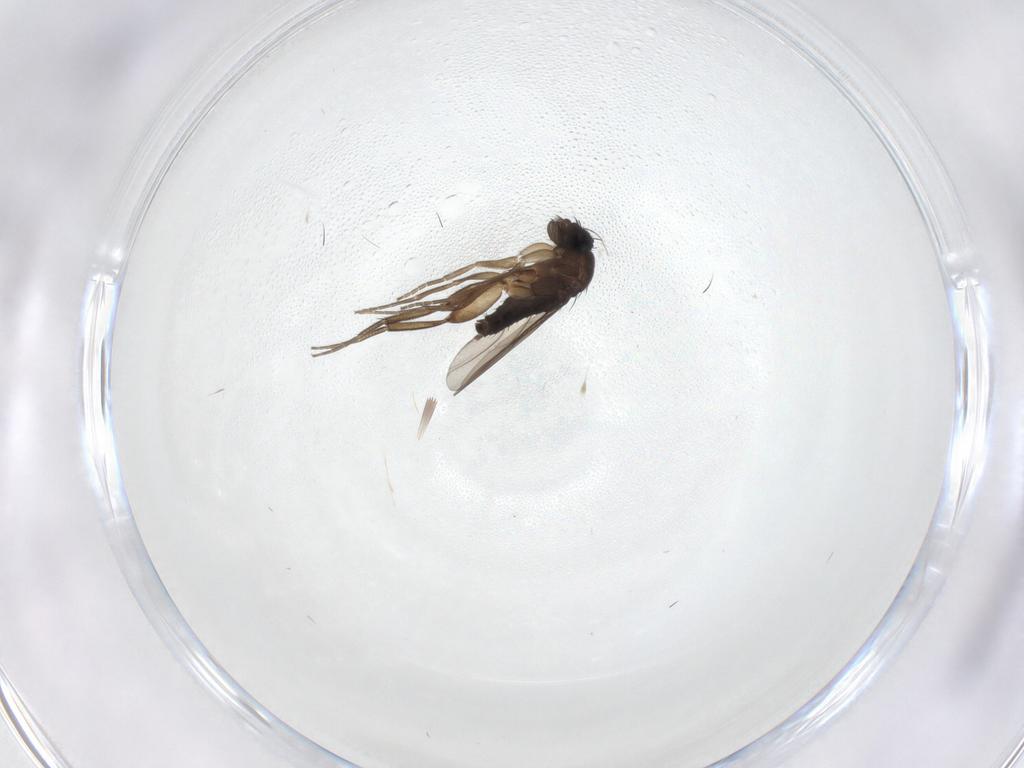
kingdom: Animalia
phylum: Arthropoda
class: Insecta
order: Diptera
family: Phoridae
